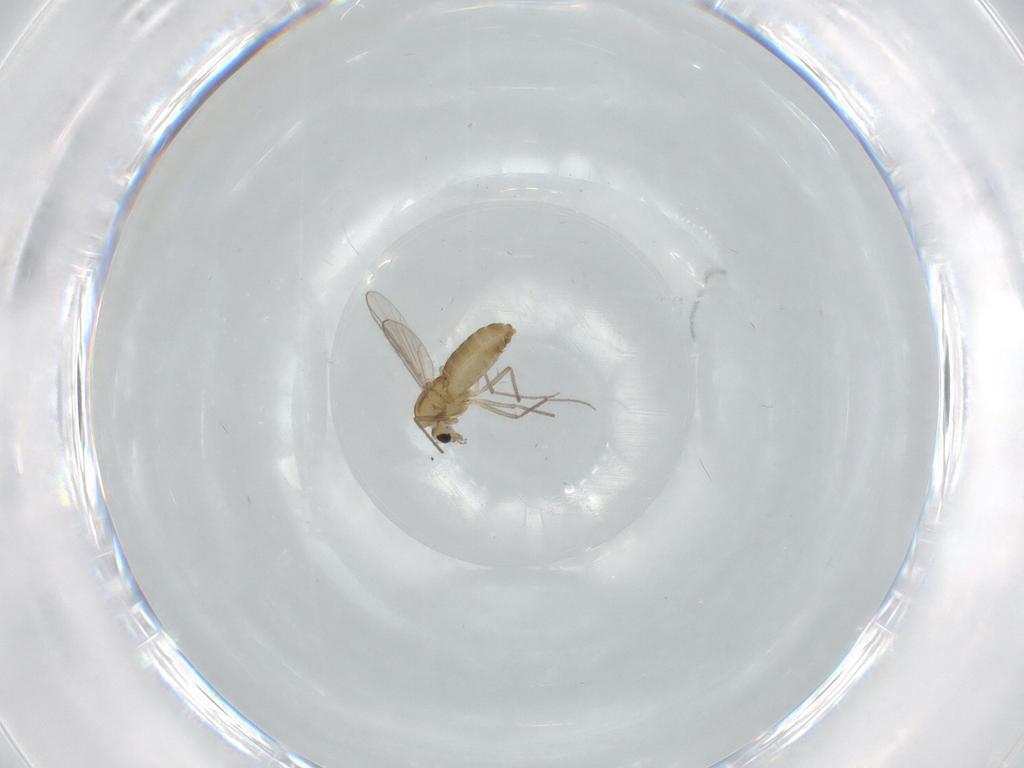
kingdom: Animalia
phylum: Arthropoda
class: Insecta
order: Diptera
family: Chironomidae
